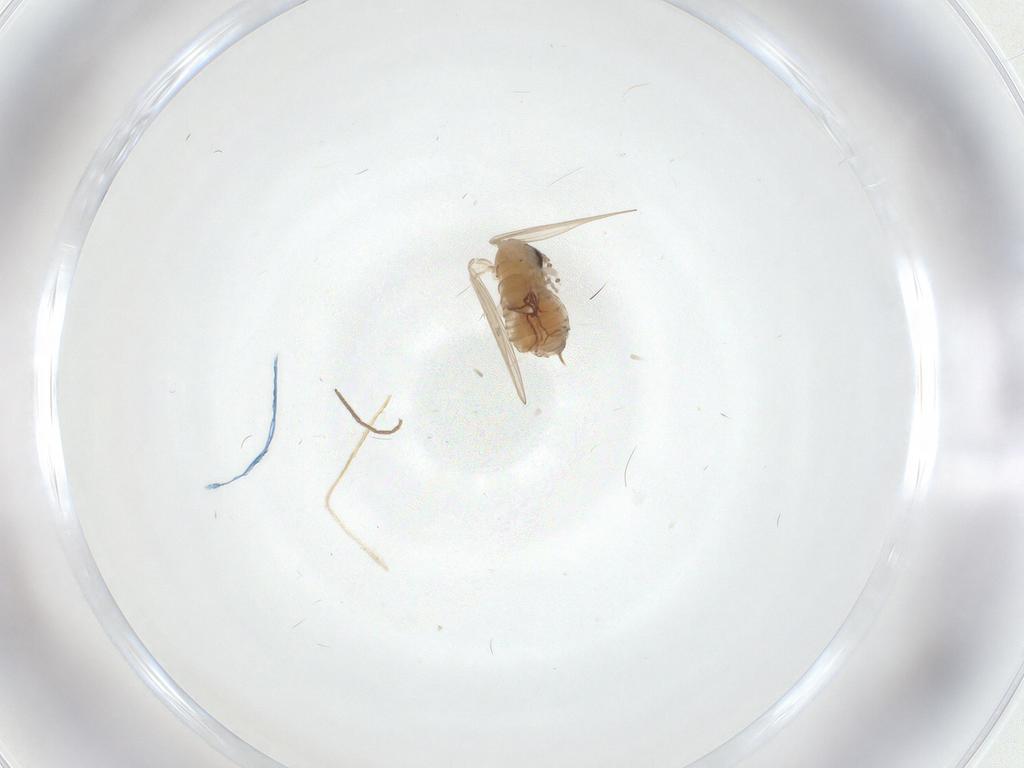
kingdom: Animalia
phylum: Arthropoda
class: Insecta
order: Diptera
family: Psychodidae
